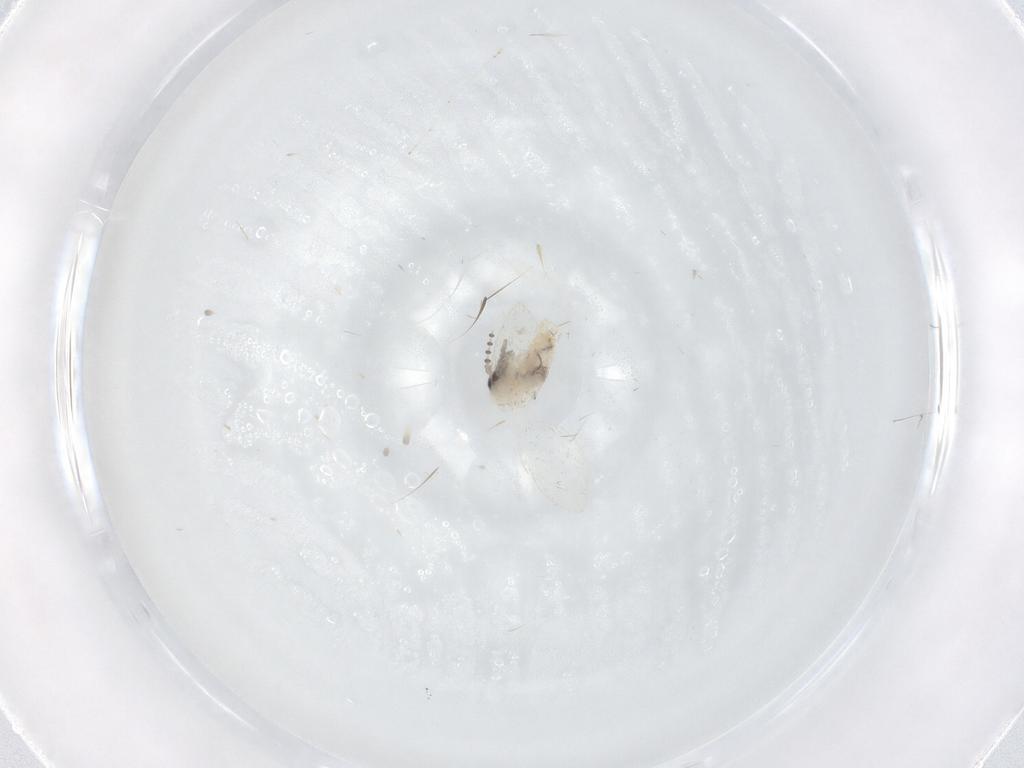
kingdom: Animalia
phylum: Arthropoda
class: Insecta
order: Diptera
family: Psychodidae
